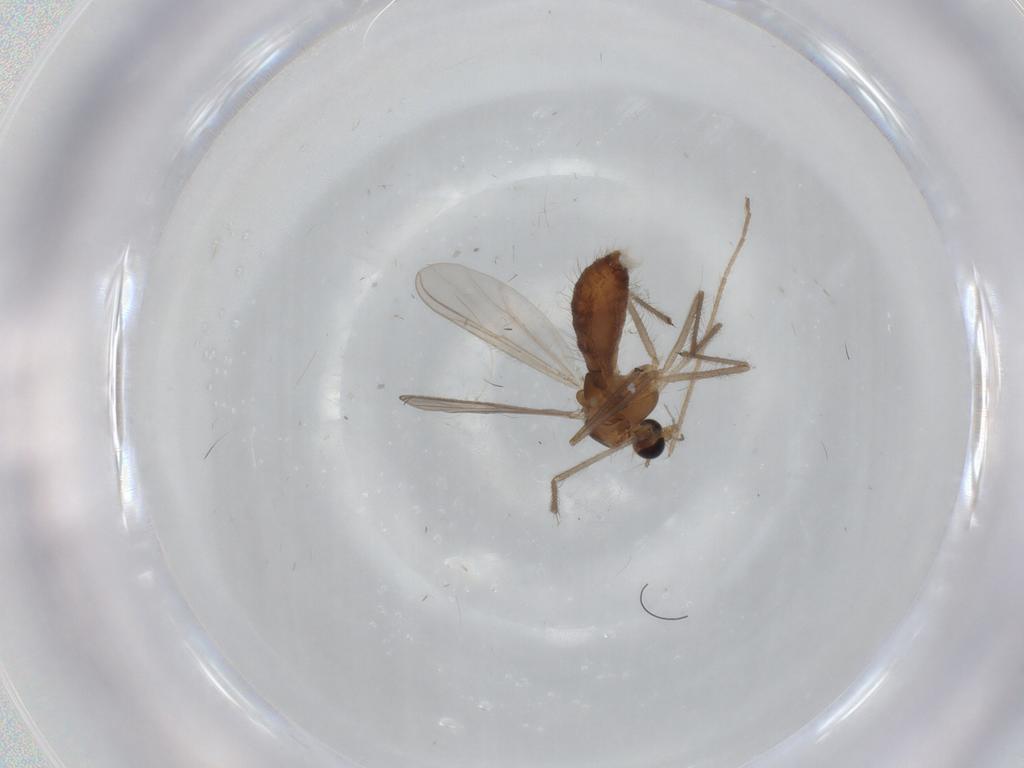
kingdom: Animalia
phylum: Arthropoda
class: Insecta
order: Diptera
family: Chironomidae
